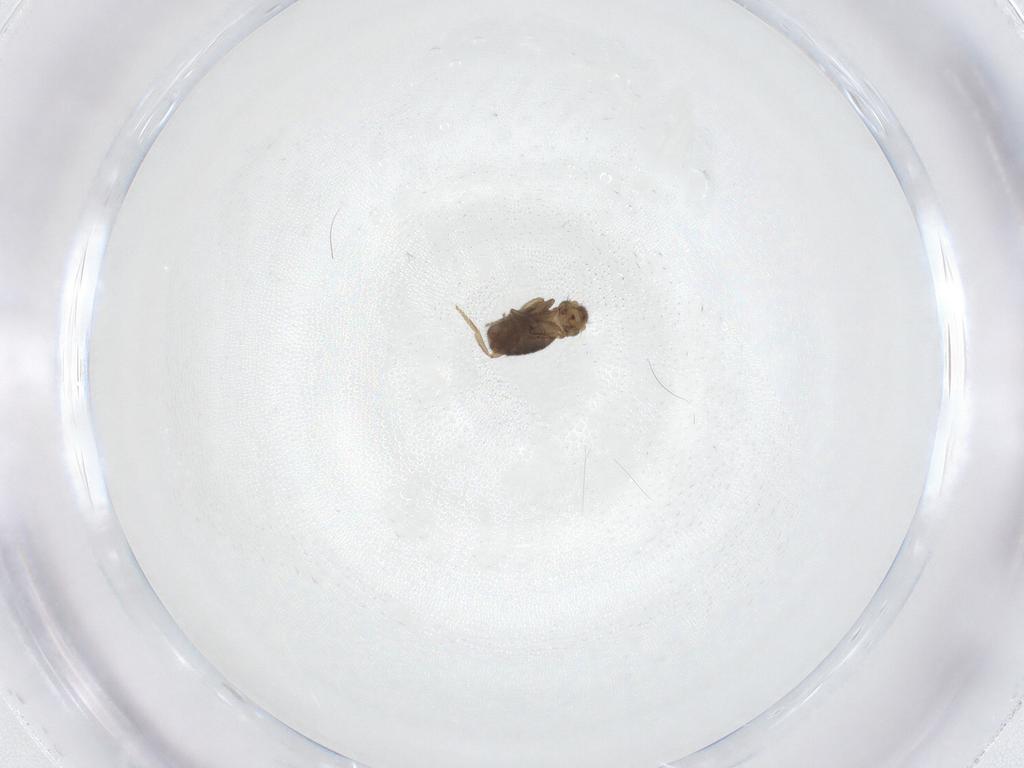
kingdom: Animalia
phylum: Arthropoda
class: Insecta
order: Diptera
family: Phoridae
